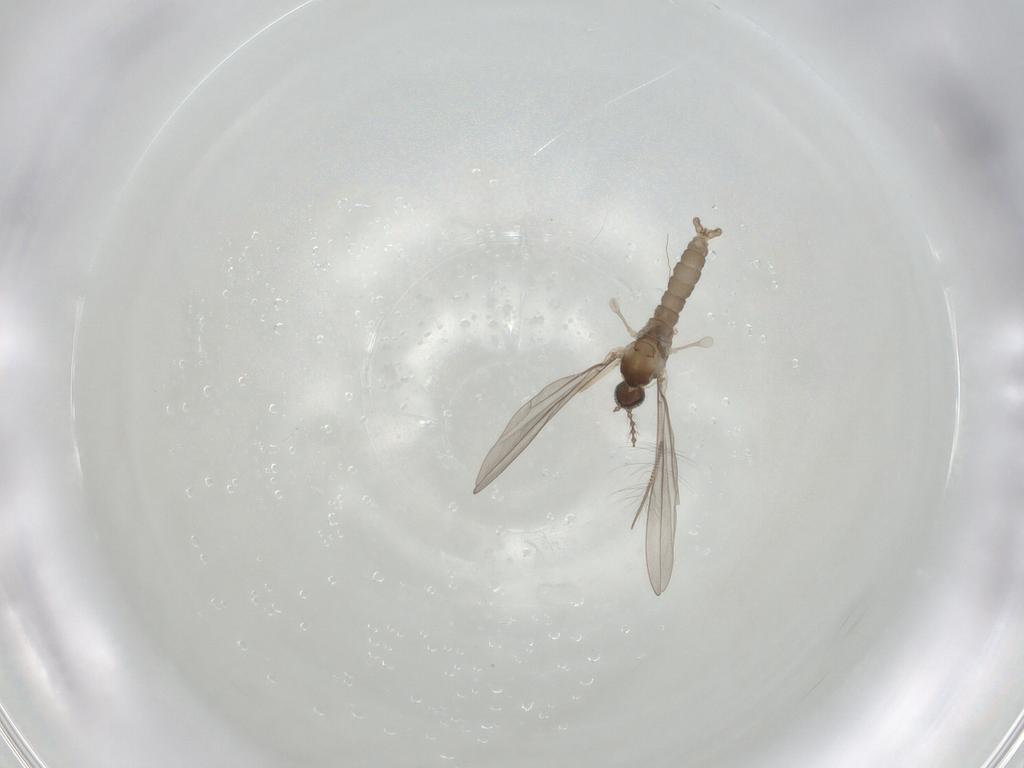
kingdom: Animalia
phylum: Arthropoda
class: Insecta
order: Diptera
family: Cecidomyiidae
